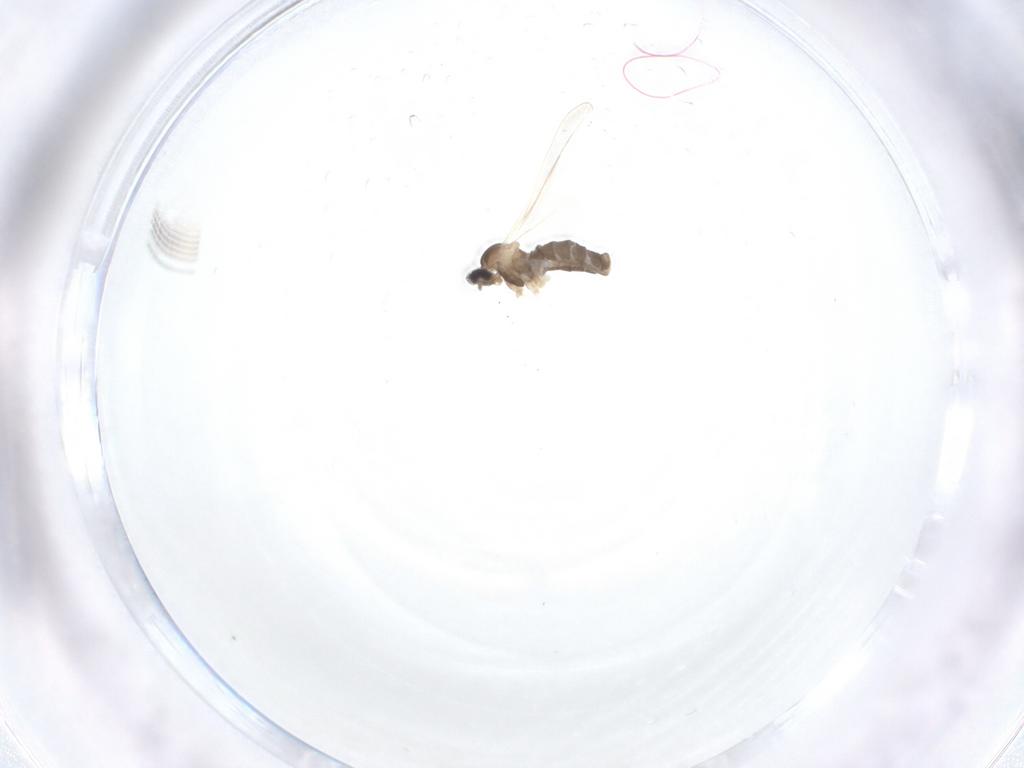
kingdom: Animalia
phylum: Arthropoda
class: Insecta
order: Diptera
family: Cecidomyiidae
